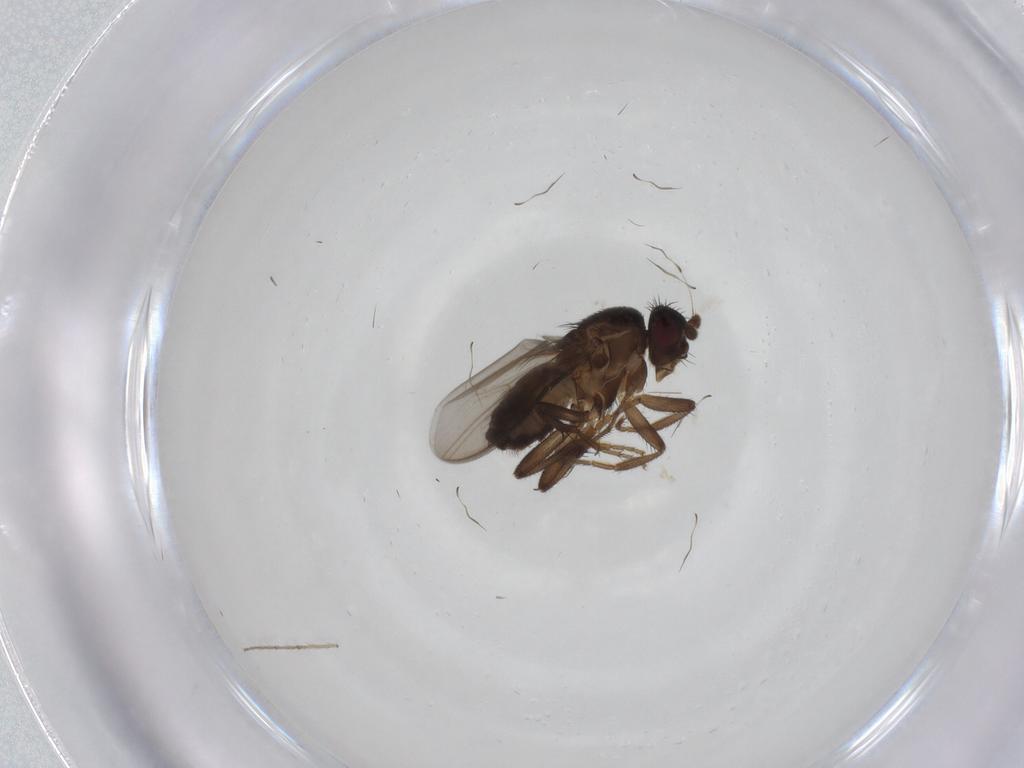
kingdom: Animalia
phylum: Arthropoda
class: Insecta
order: Diptera
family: Sphaeroceridae
